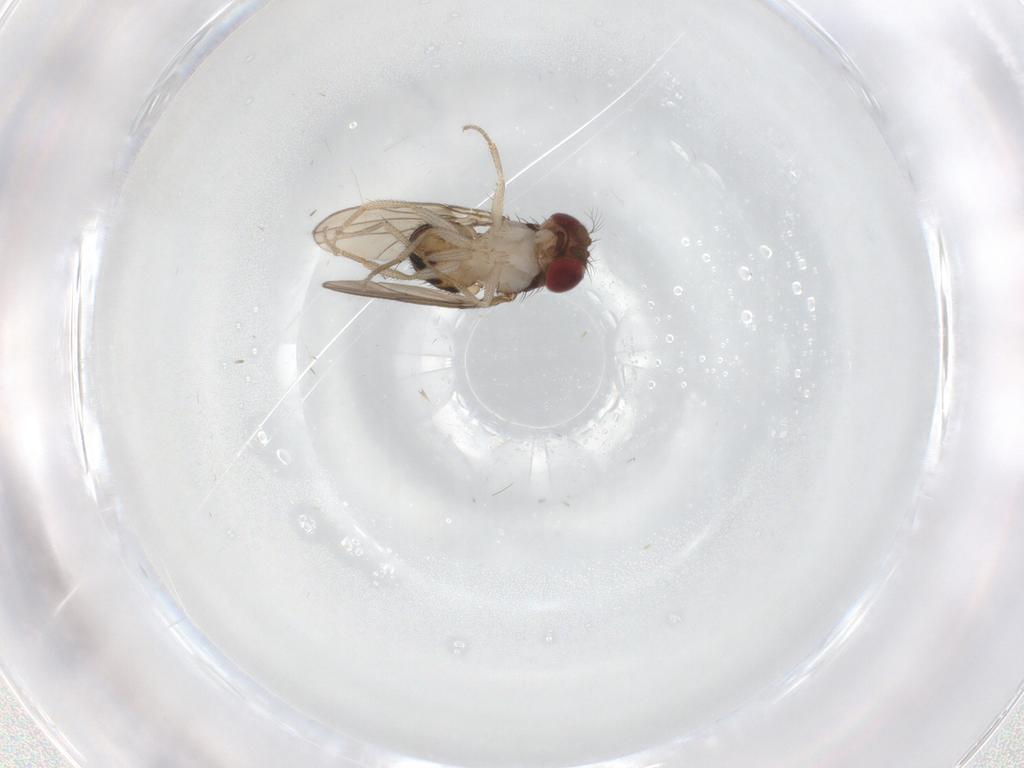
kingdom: Animalia
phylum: Arthropoda
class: Insecta
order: Diptera
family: Drosophilidae
